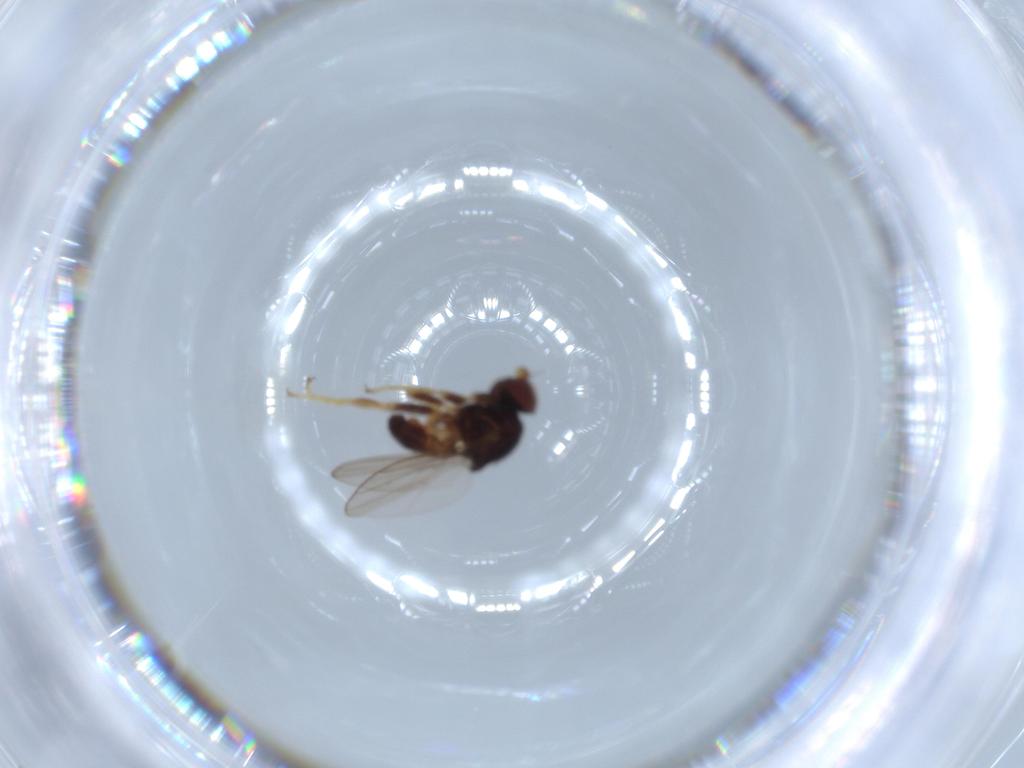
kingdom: Animalia
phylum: Arthropoda
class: Insecta
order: Diptera
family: Chloropidae
